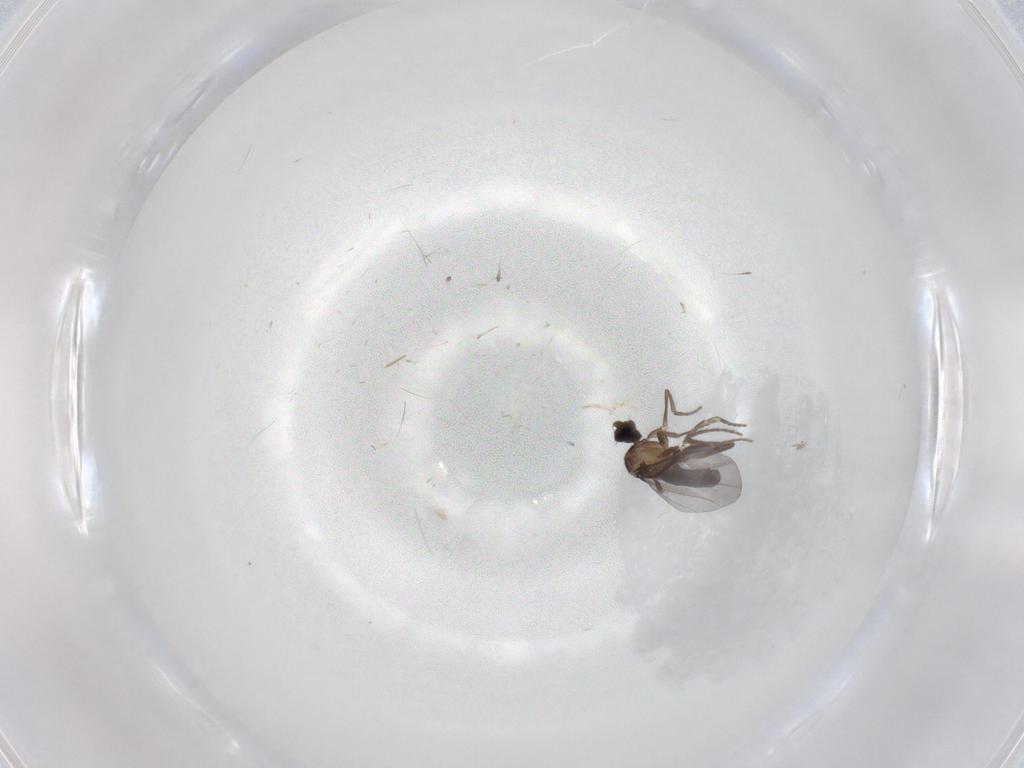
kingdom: Animalia
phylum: Arthropoda
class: Insecta
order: Diptera
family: Phoridae
